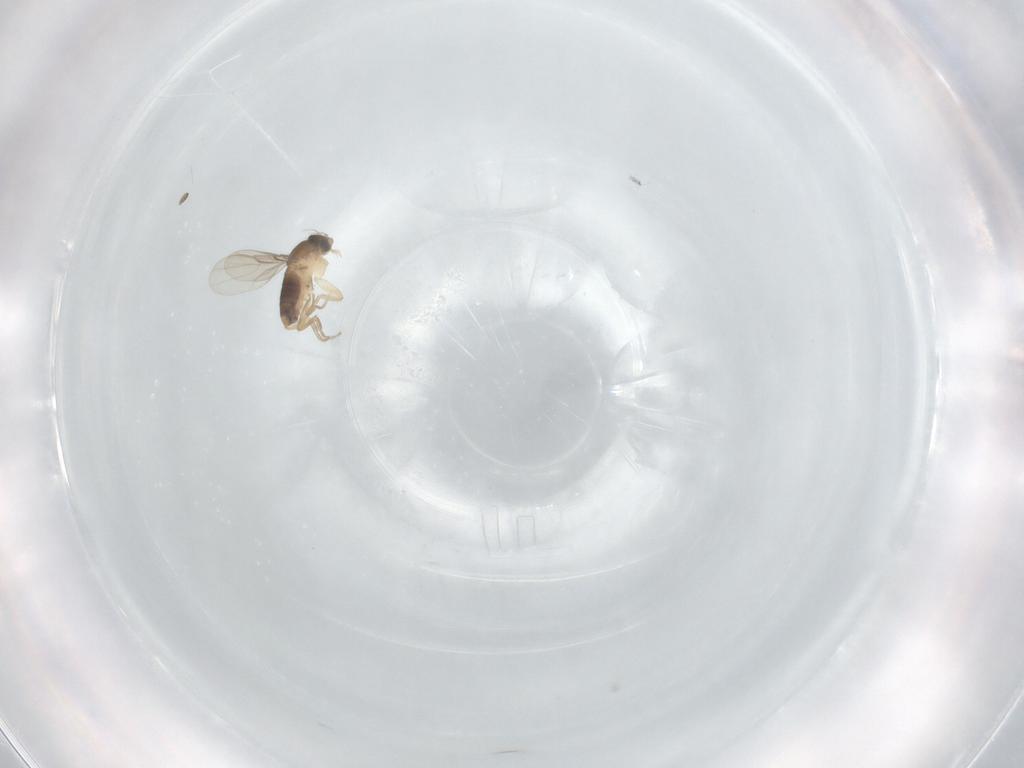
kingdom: Animalia
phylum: Arthropoda
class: Insecta
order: Diptera
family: Phoridae
